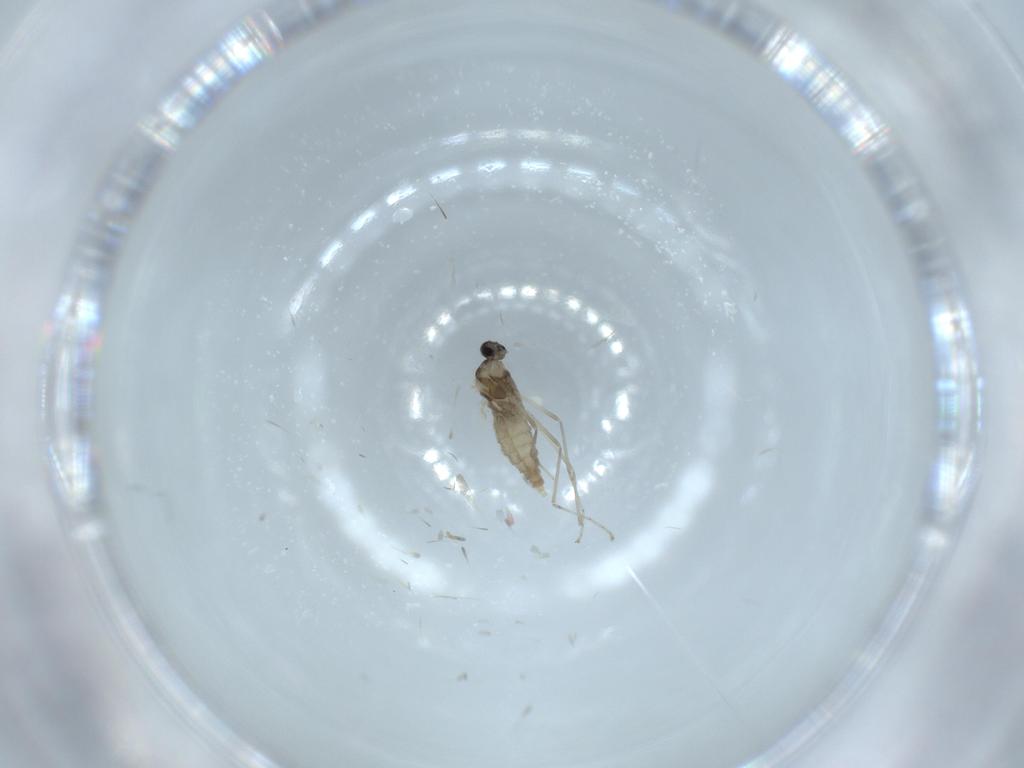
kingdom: Animalia
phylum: Arthropoda
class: Insecta
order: Diptera
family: Cecidomyiidae
